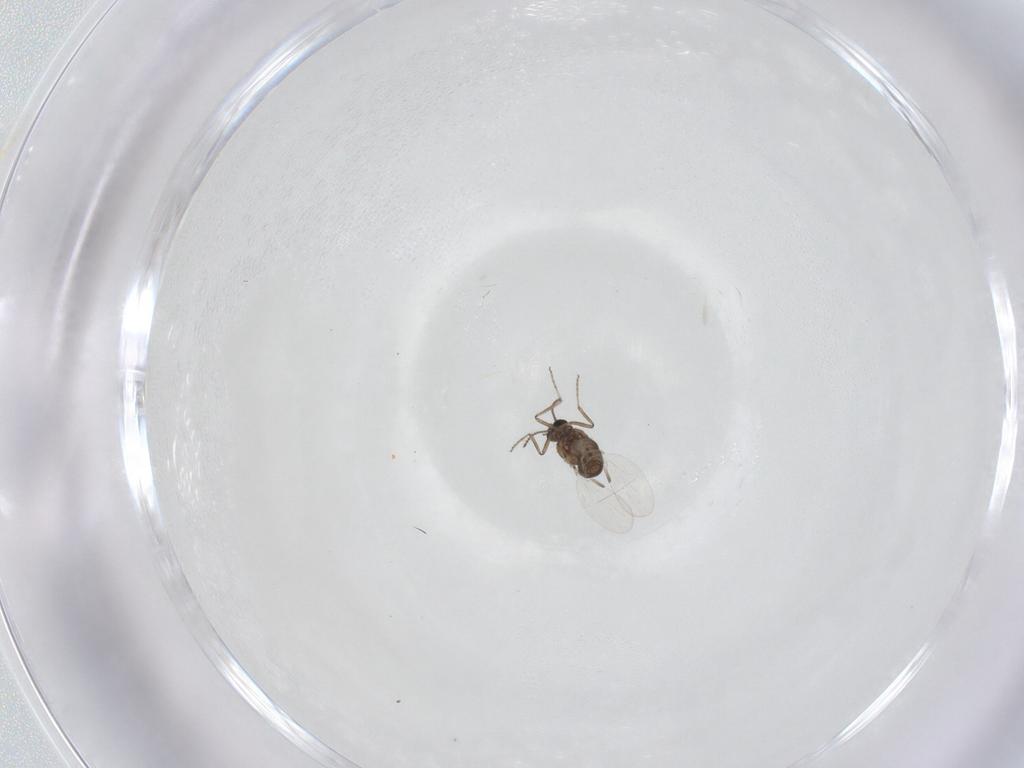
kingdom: Animalia
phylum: Arthropoda
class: Insecta
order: Diptera
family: Ceratopogonidae
